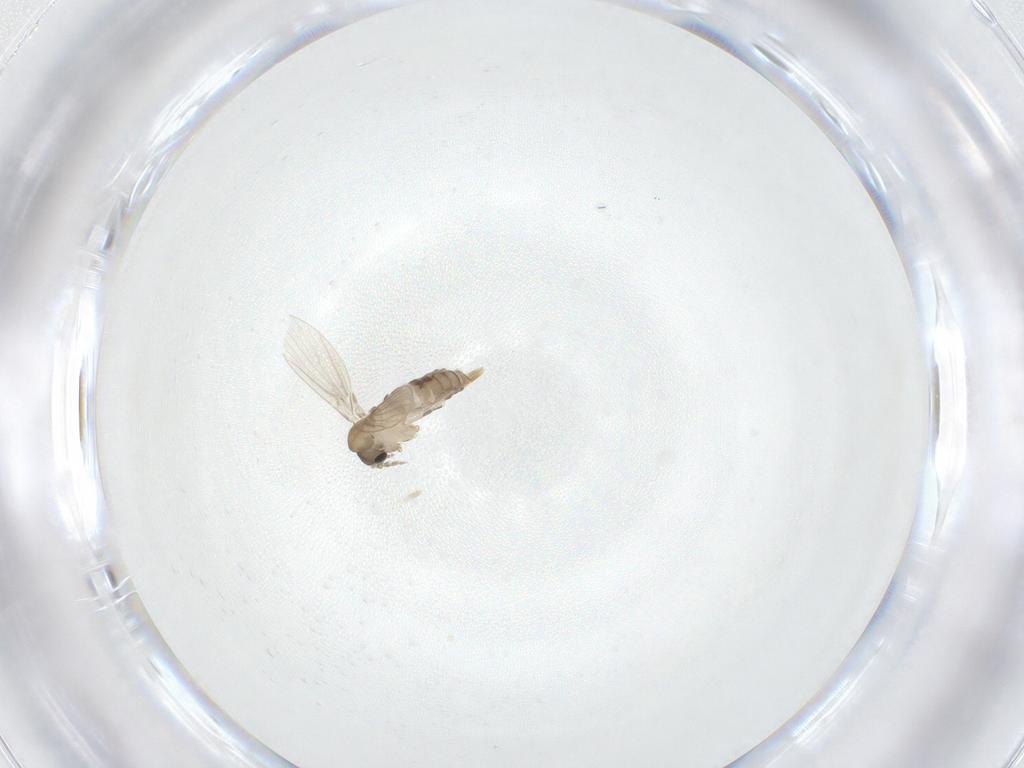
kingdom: Animalia
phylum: Arthropoda
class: Insecta
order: Diptera
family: Psychodidae
